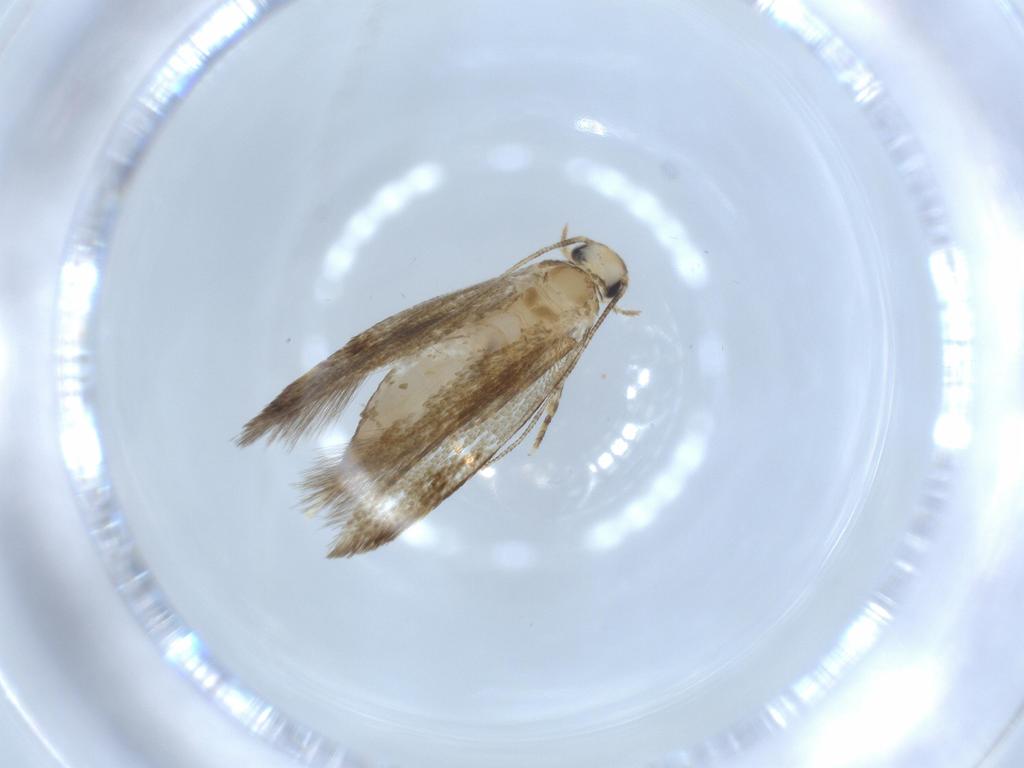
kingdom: Animalia
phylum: Arthropoda
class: Insecta
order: Lepidoptera
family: Tineidae
